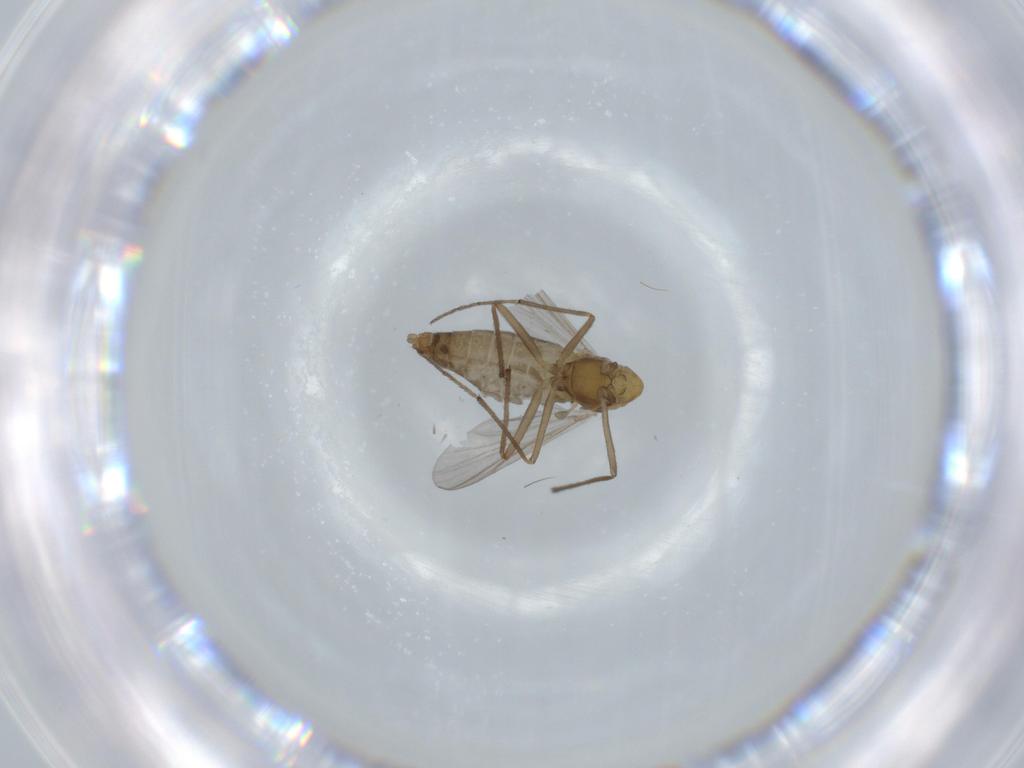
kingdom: Animalia
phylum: Arthropoda
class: Insecta
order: Diptera
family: Chironomidae
